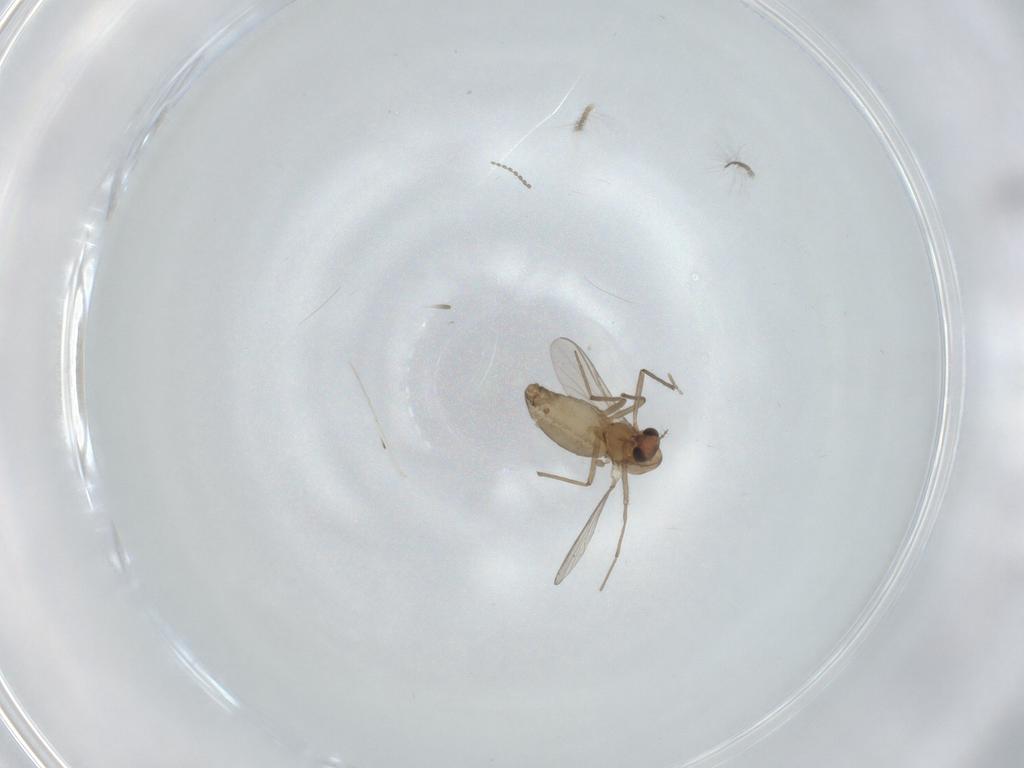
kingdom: Animalia
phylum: Arthropoda
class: Insecta
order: Diptera
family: Chironomidae
